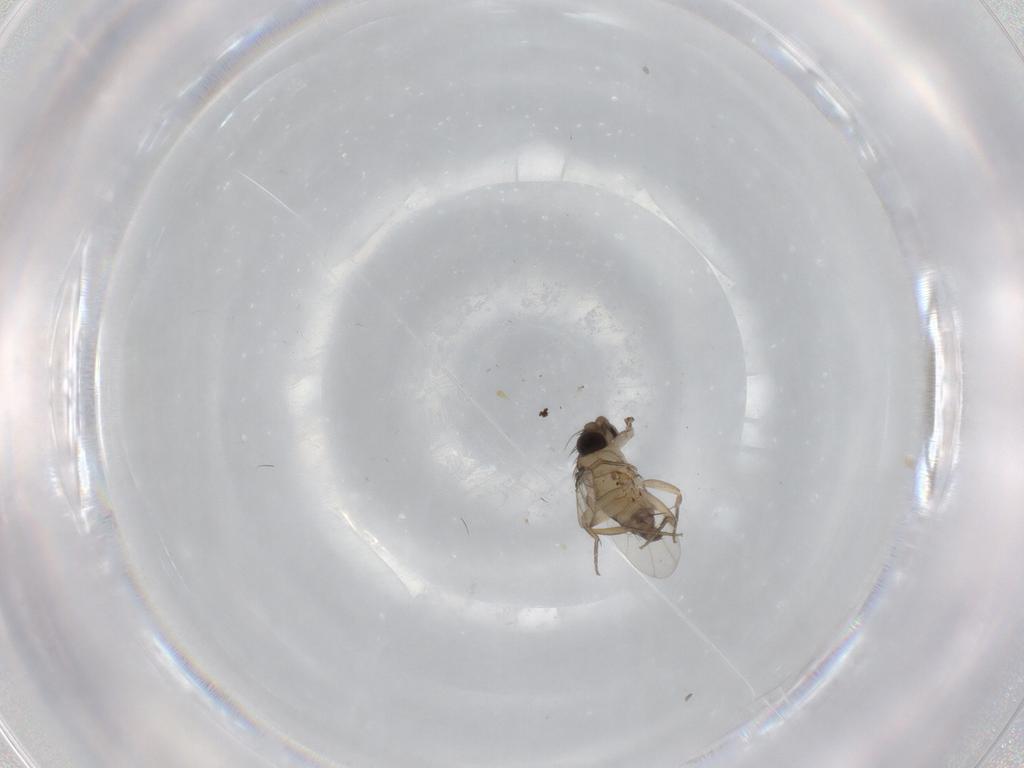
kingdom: Animalia
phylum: Arthropoda
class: Insecta
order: Diptera
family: Phoridae
